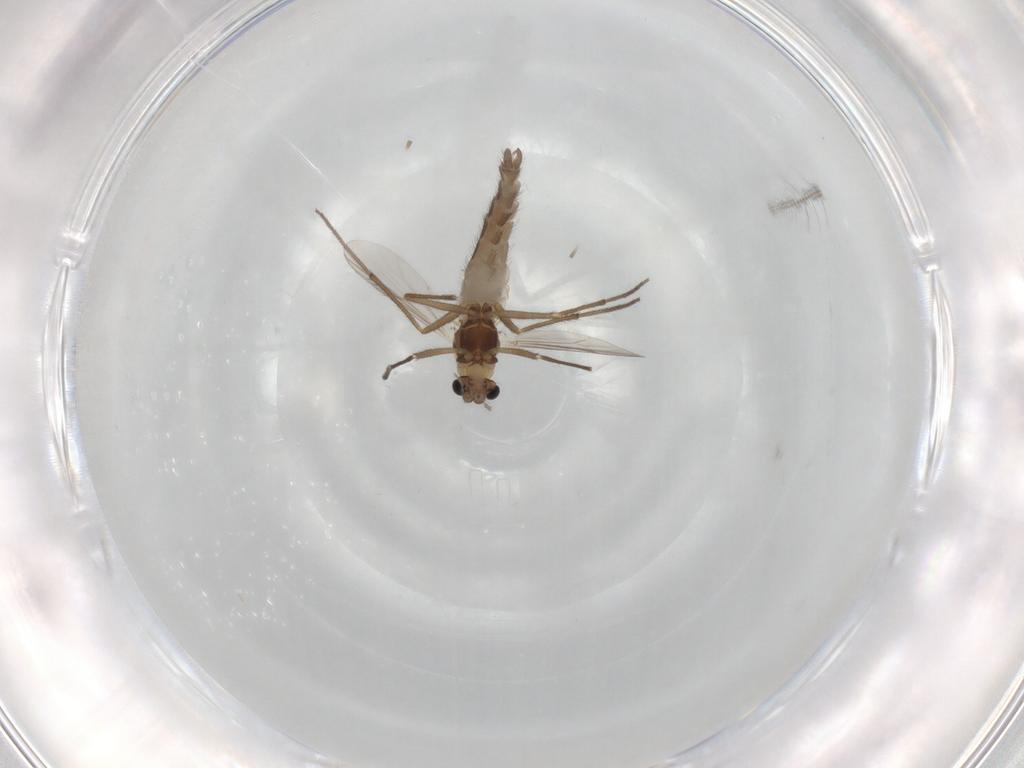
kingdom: Animalia
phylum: Arthropoda
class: Insecta
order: Diptera
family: Chironomidae
